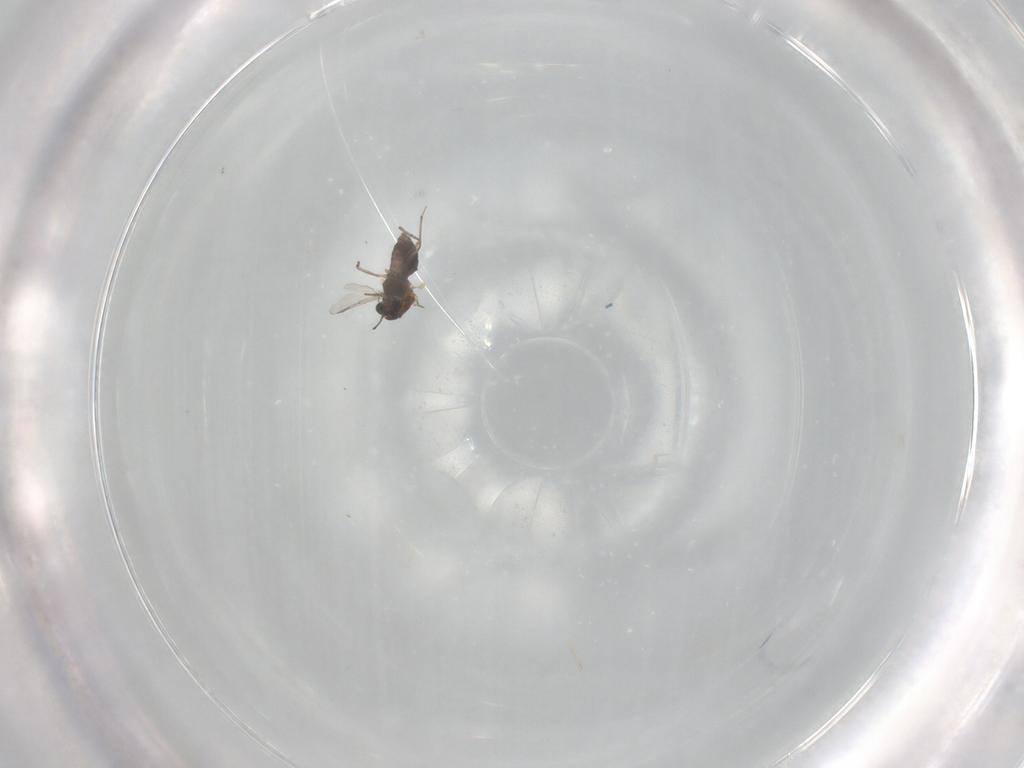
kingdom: Animalia
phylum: Arthropoda
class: Insecta
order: Diptera
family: Chironomidae
